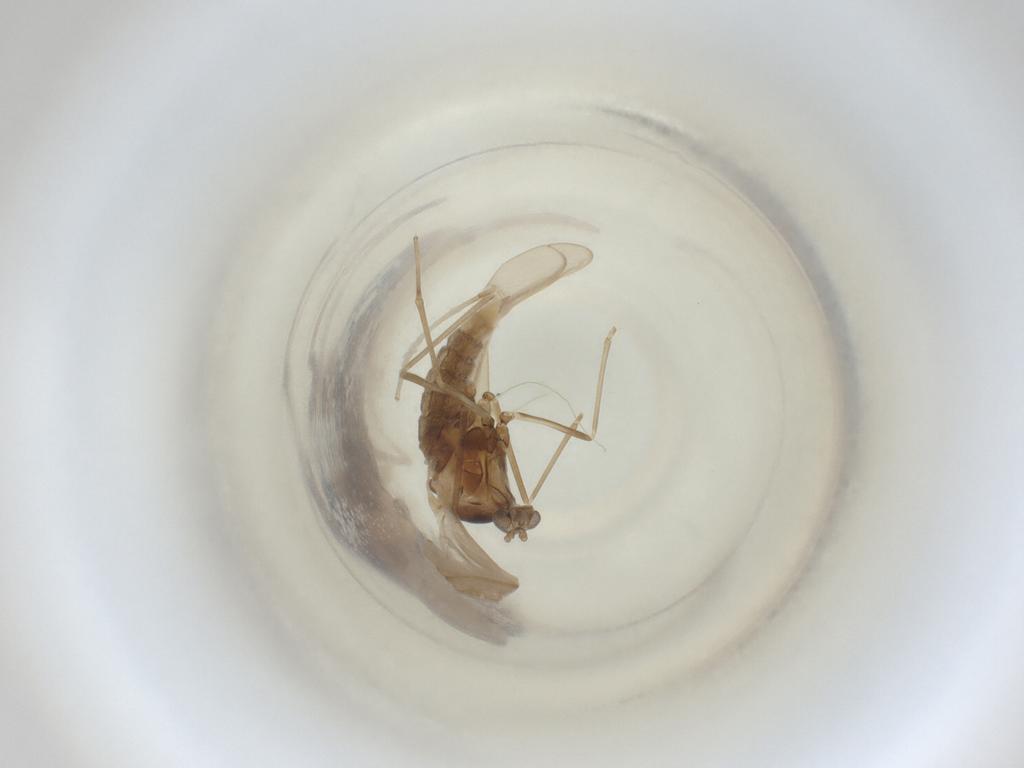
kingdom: Animalia
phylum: Arthropoda
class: Insecta
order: Diptera
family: Cecidomyiidae
